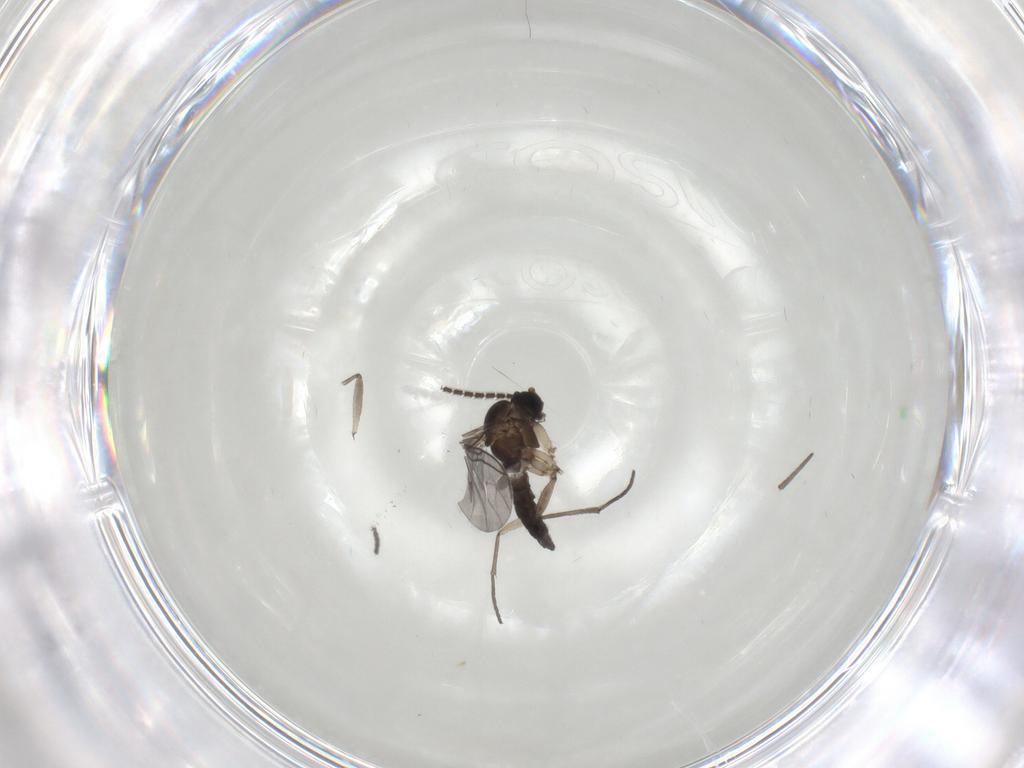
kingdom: Animalia
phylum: Arthropoda
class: Insecta
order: Diptera
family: Sciaridae
